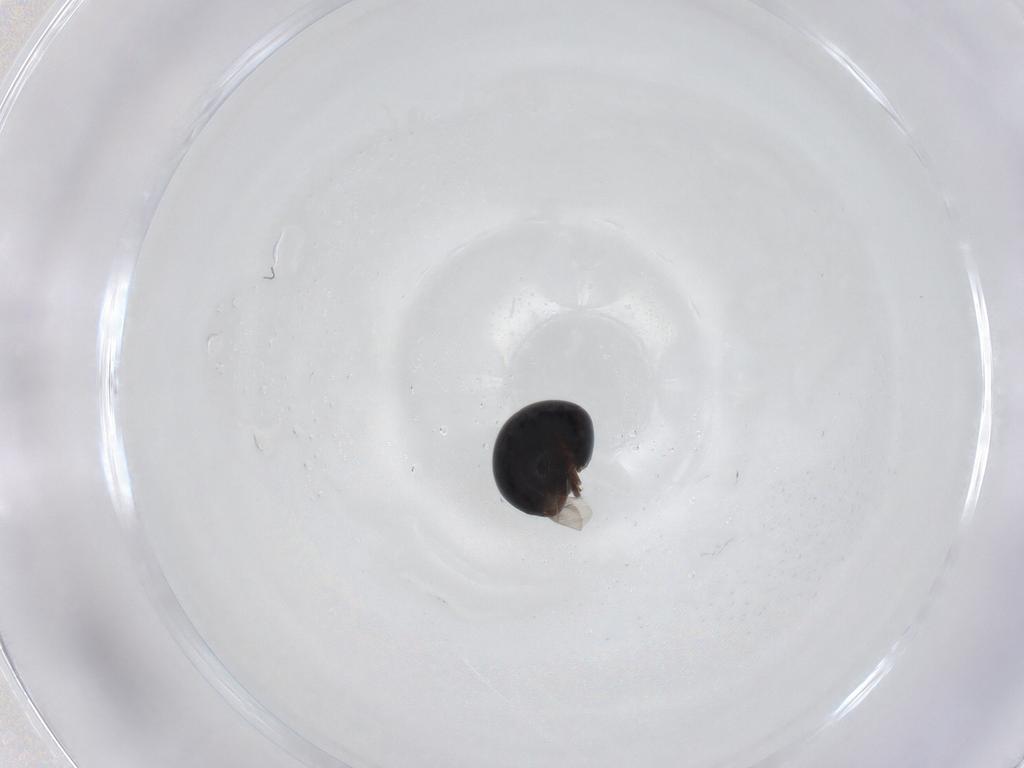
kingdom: Animalia
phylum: Arthropoda
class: Insecta
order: Coleoptera
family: Cybocephalidae
